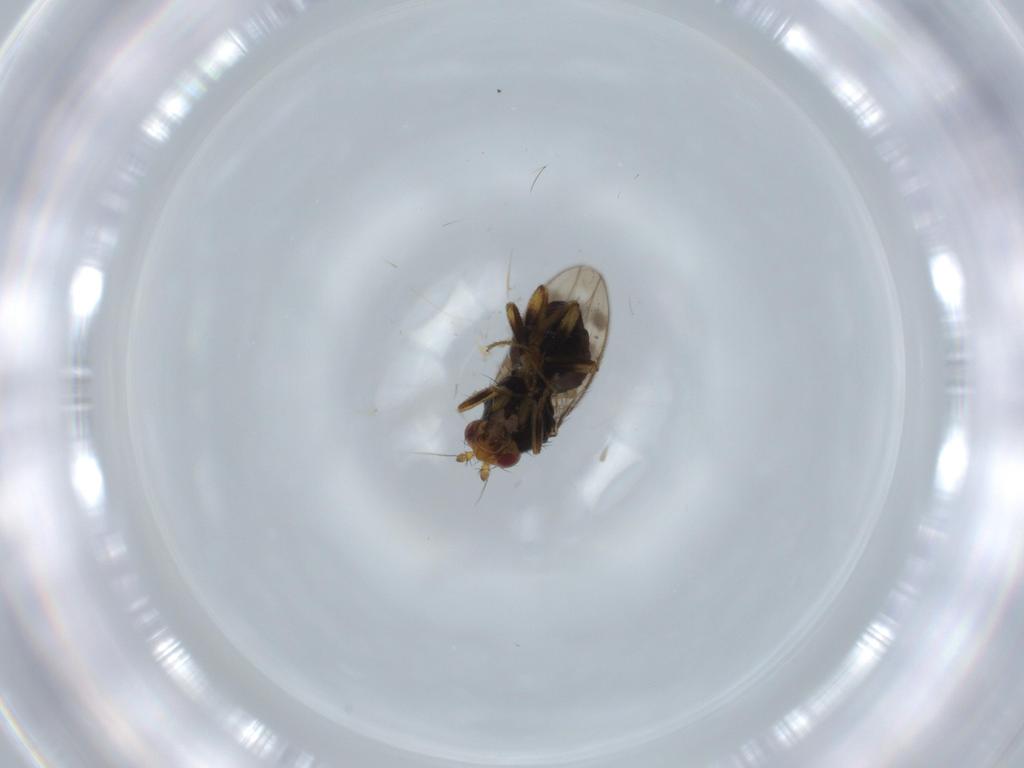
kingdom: Animalia
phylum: Arthropoda
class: Insecta
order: Diptera
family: Sphaeroceridae
